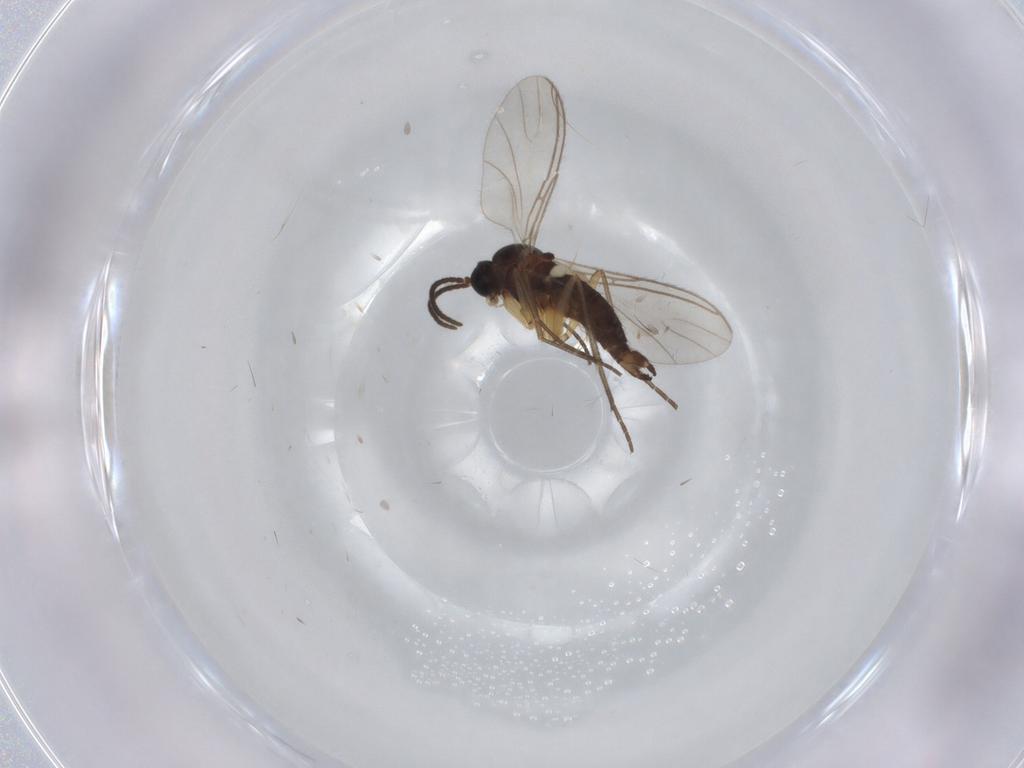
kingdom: Animalia
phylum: Arthropoda
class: Insecta
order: Diptera
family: Sciaridae
